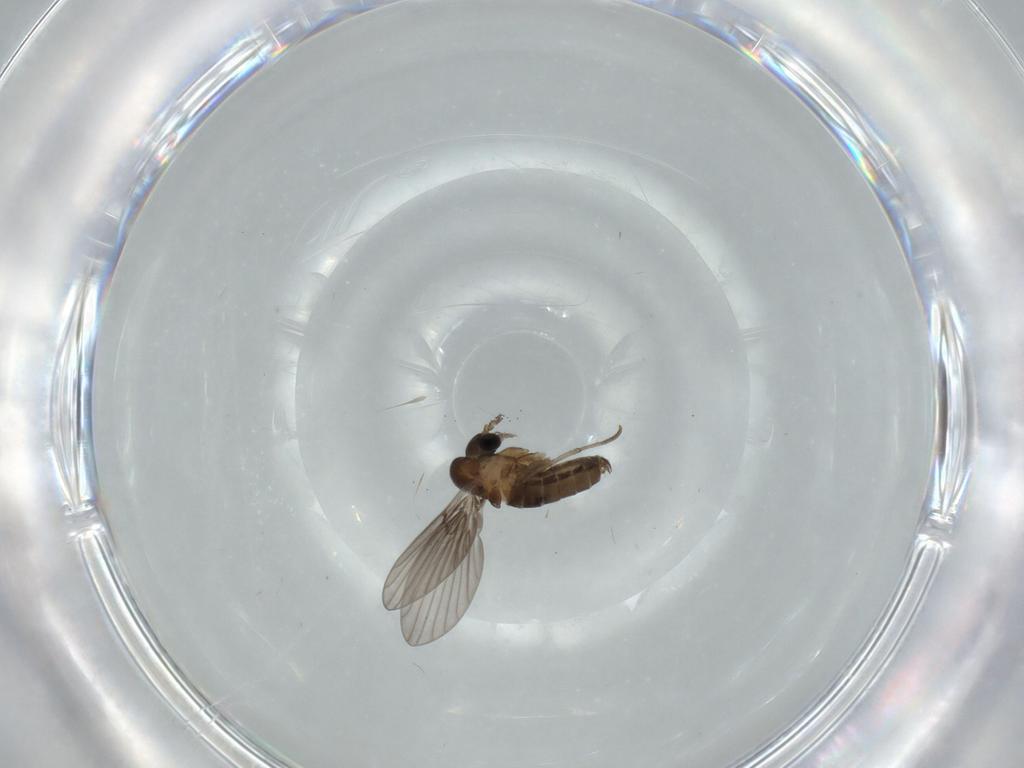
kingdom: Animalia
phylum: Arthropoda
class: Insecta
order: Diptera
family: Psychodidae
